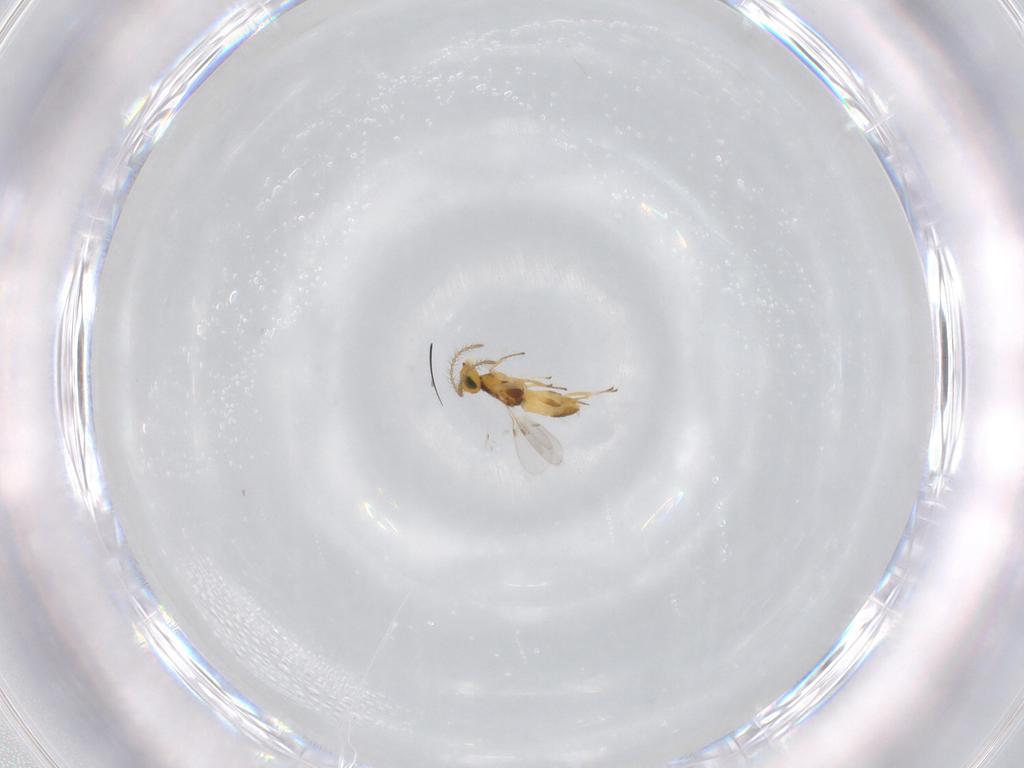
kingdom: Animalia
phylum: Arthropoda
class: Insecta
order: Hymenoptera
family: Encyrtidae
